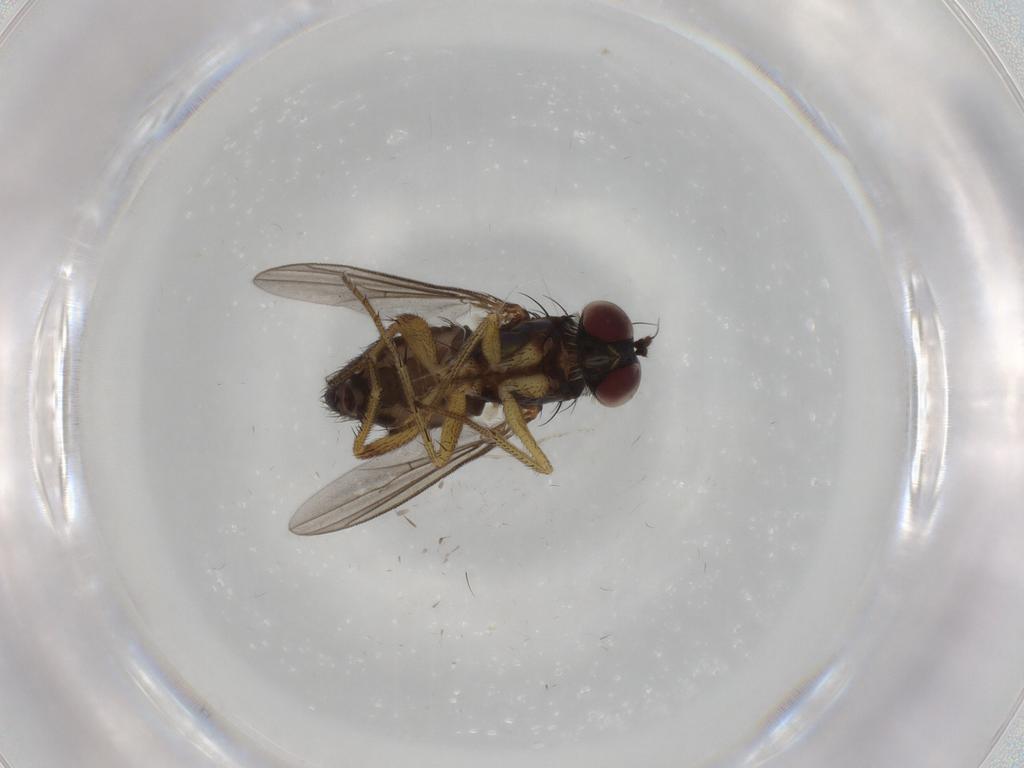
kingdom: Animalia
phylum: Arthropoda
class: Insecta
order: Diptera
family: Dolichopodidae
